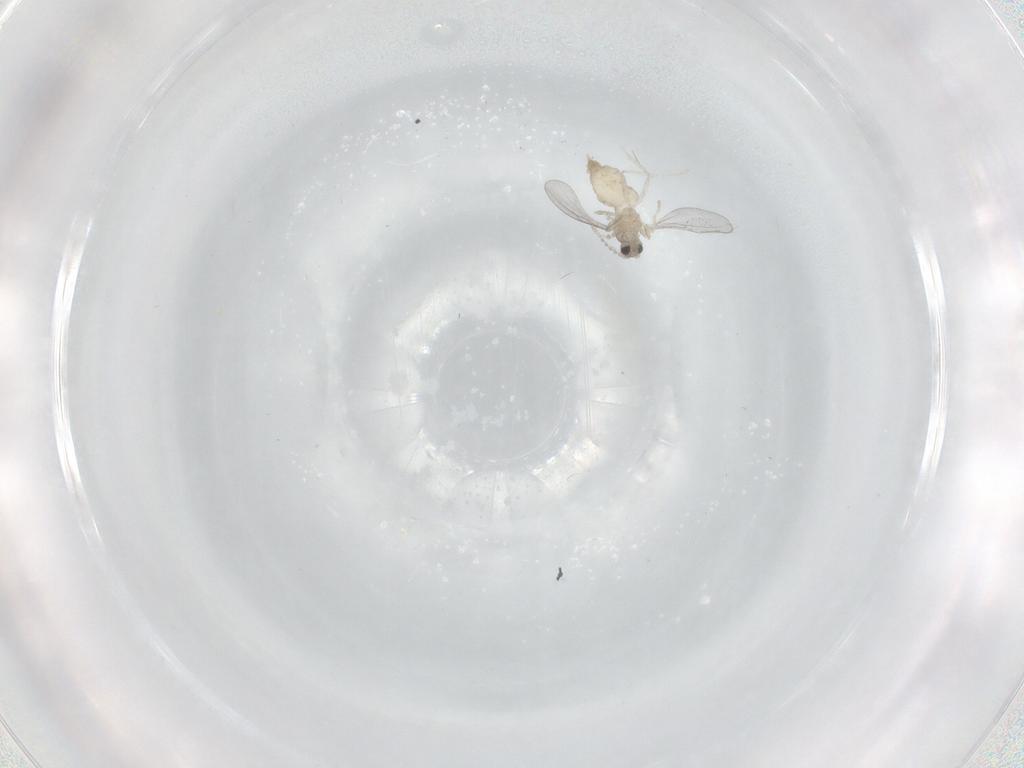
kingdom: Animalia
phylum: Arthropoda
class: Insecta
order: Diptera
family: Cecidomyiidae
